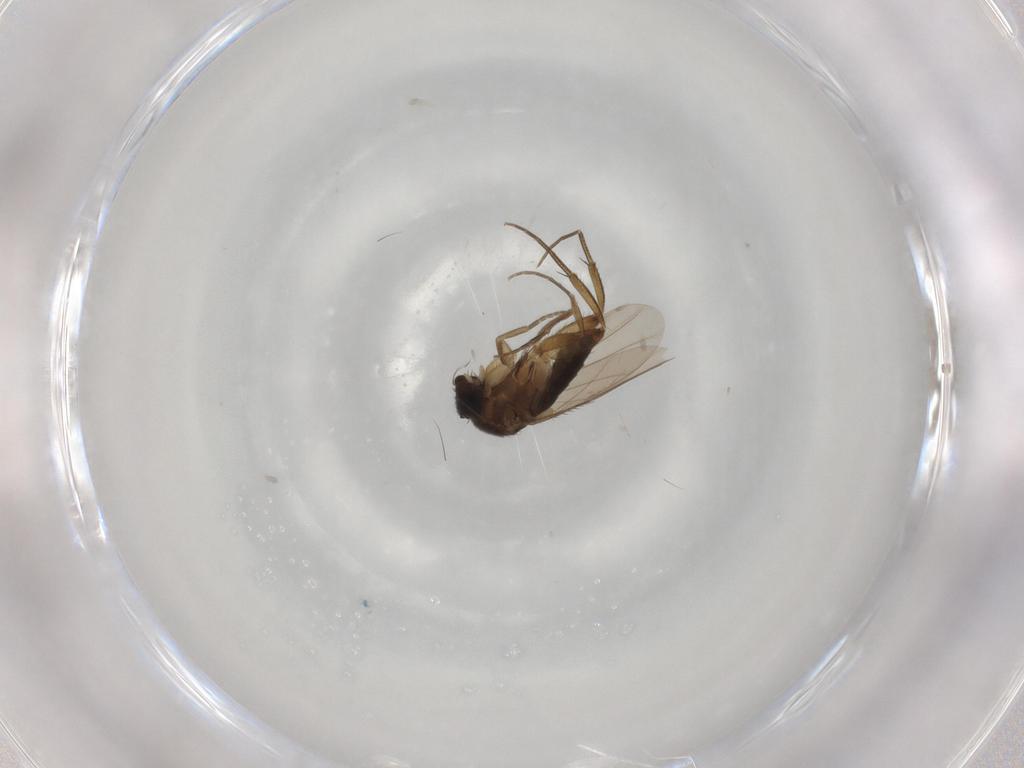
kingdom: Animalia
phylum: Arthropoda
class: Insecta
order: Diptera
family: Phoridae
